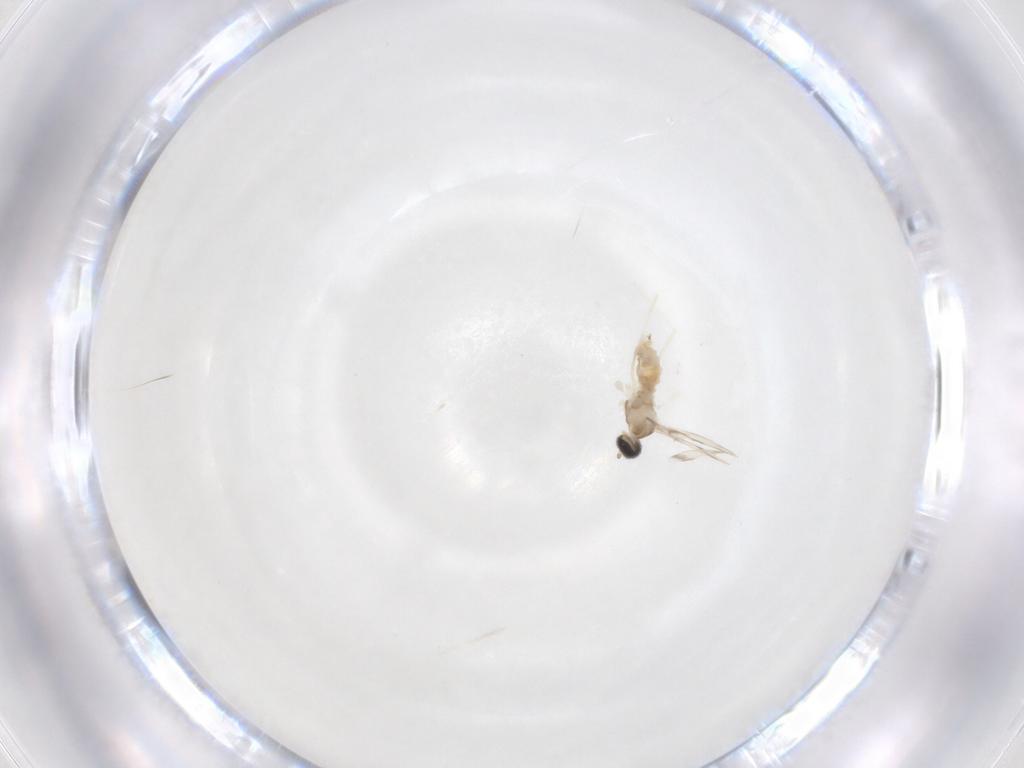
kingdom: Animalia
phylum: Arthropoda
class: Insecta
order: Diptera
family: Cecidomyiidae
